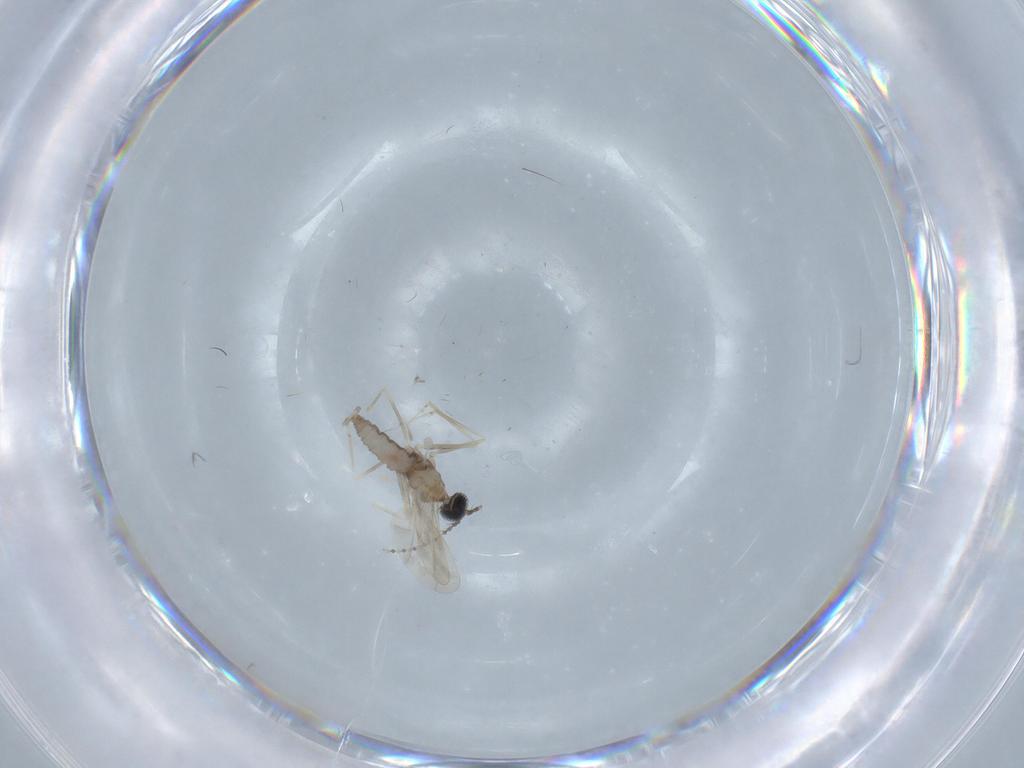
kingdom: Animalia
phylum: Arthropoda
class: Insecta
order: Diptera
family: Cecidomyiidae
